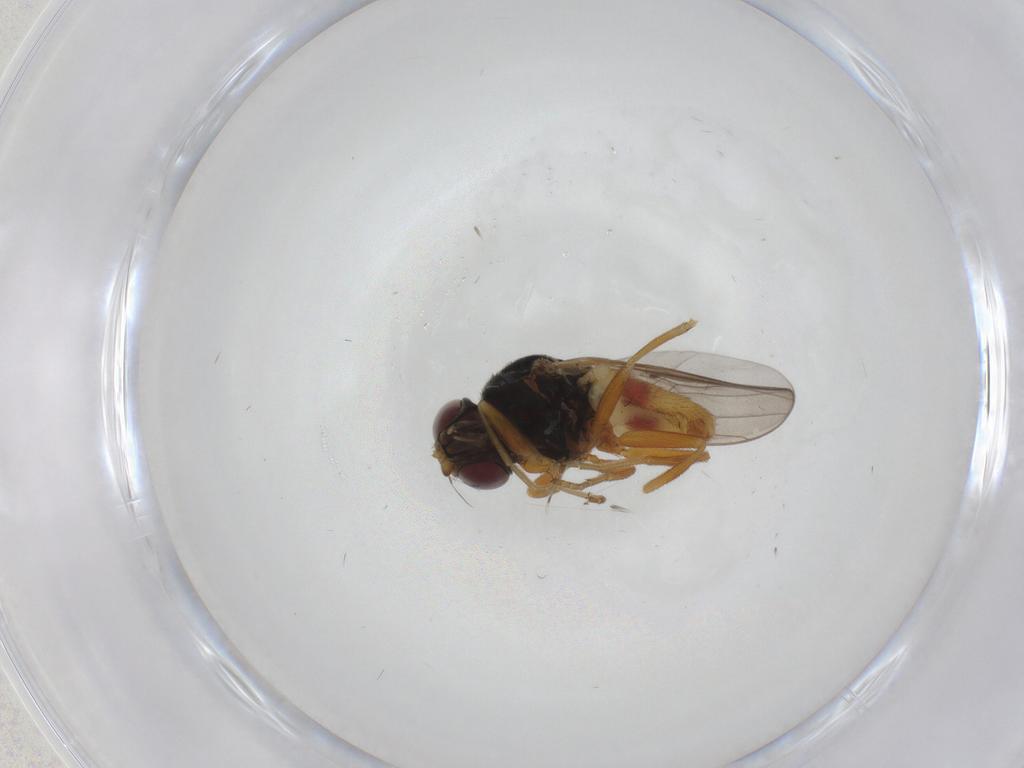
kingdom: Animalia
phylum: Arthropoda
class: Insecta
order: Diptera
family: Chloropidae
